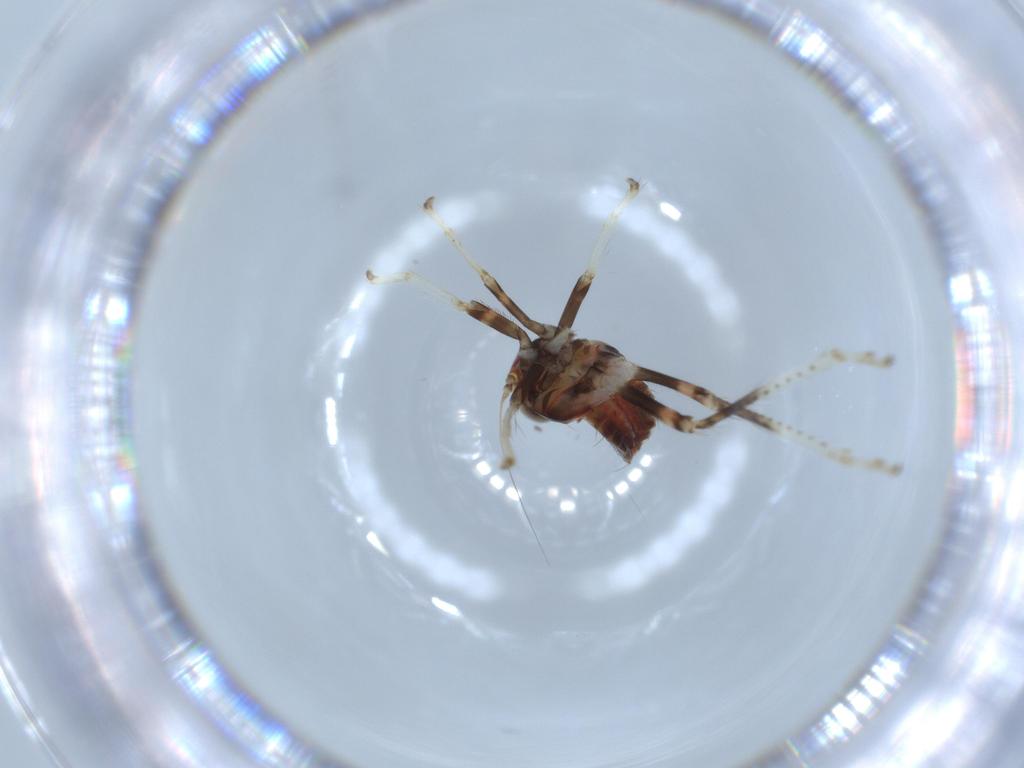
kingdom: Animalia
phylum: Arthropoda
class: Insecta
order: Hemiptera
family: Cicadellidae
